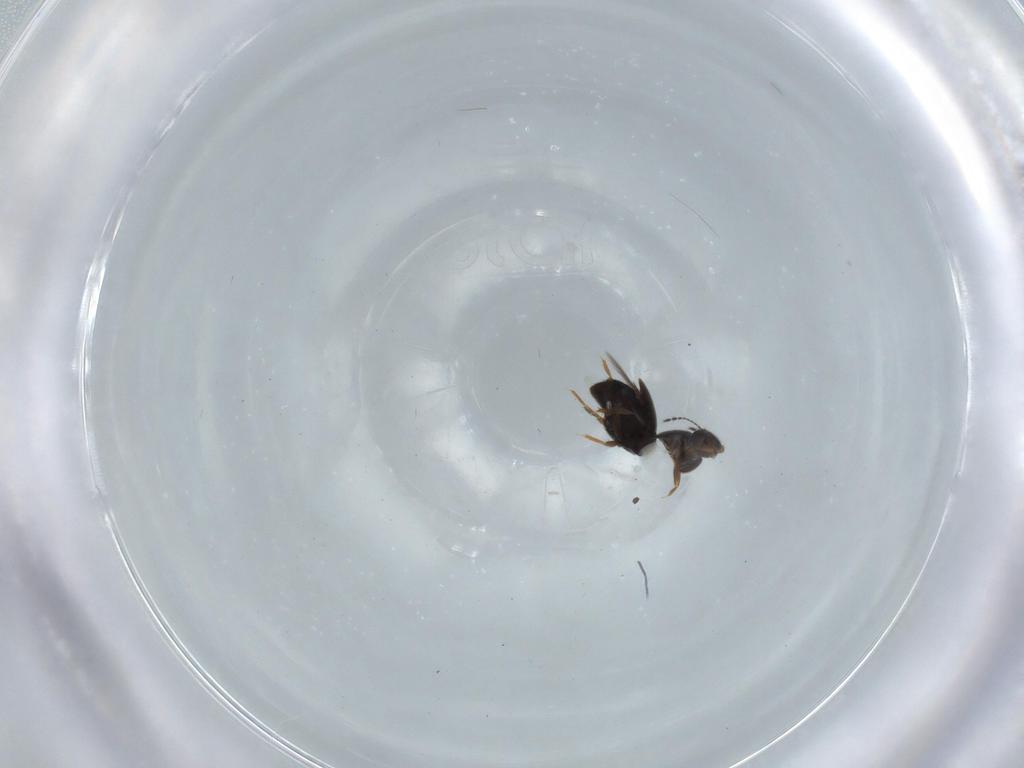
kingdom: Animalia
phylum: Arthropoda
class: Insecta
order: Coleoptera
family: Ptiliidae
